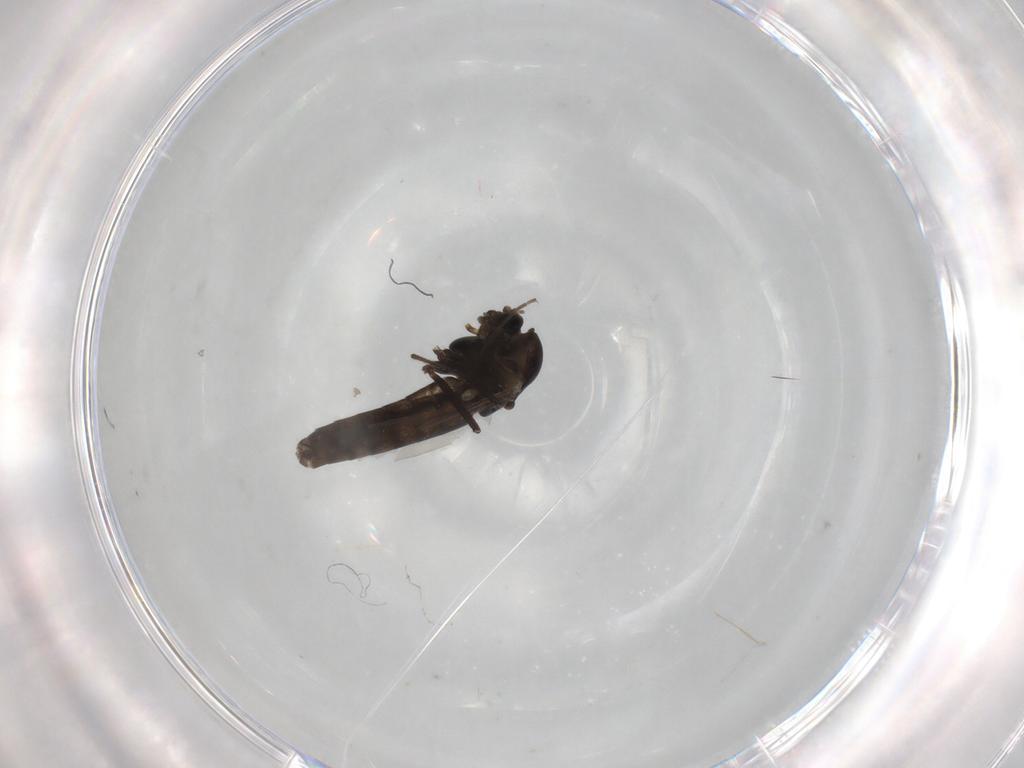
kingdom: Animalia
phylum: Arthropoda
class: Insecta
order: Diptera
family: Chironomidae
